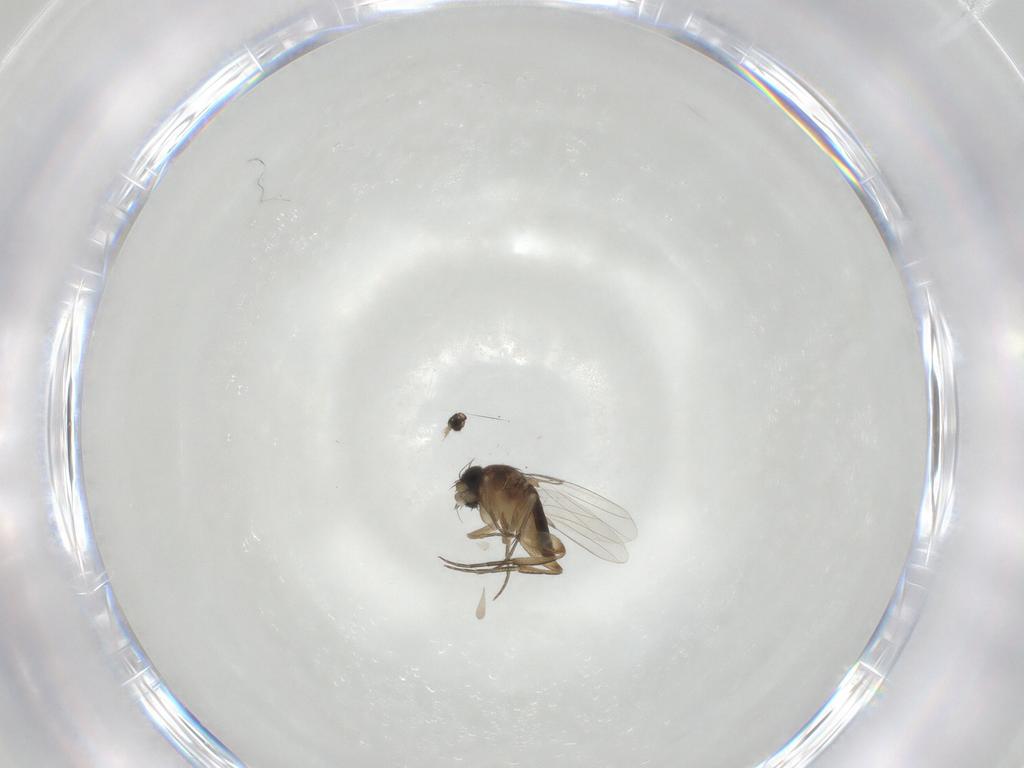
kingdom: Animalia
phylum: Arthropoda
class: Insecta
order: Diptera
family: Phoridae
